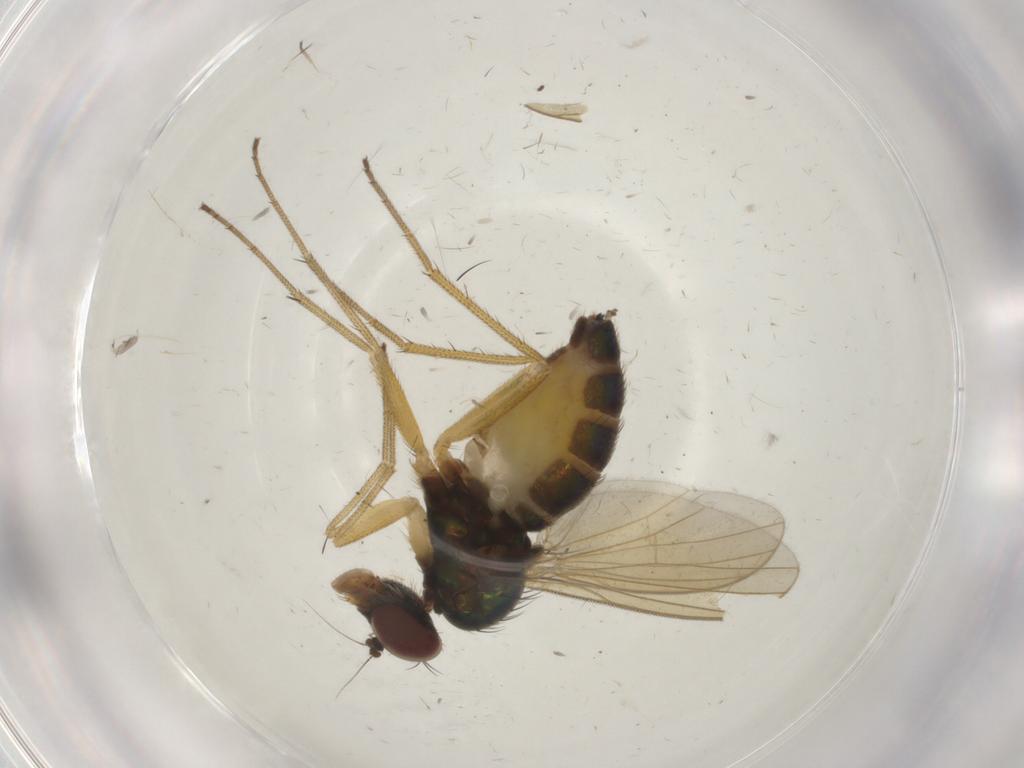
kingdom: Animalia
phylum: Arthropoda
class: Insecta
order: Diptera
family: Dolichopodidae
